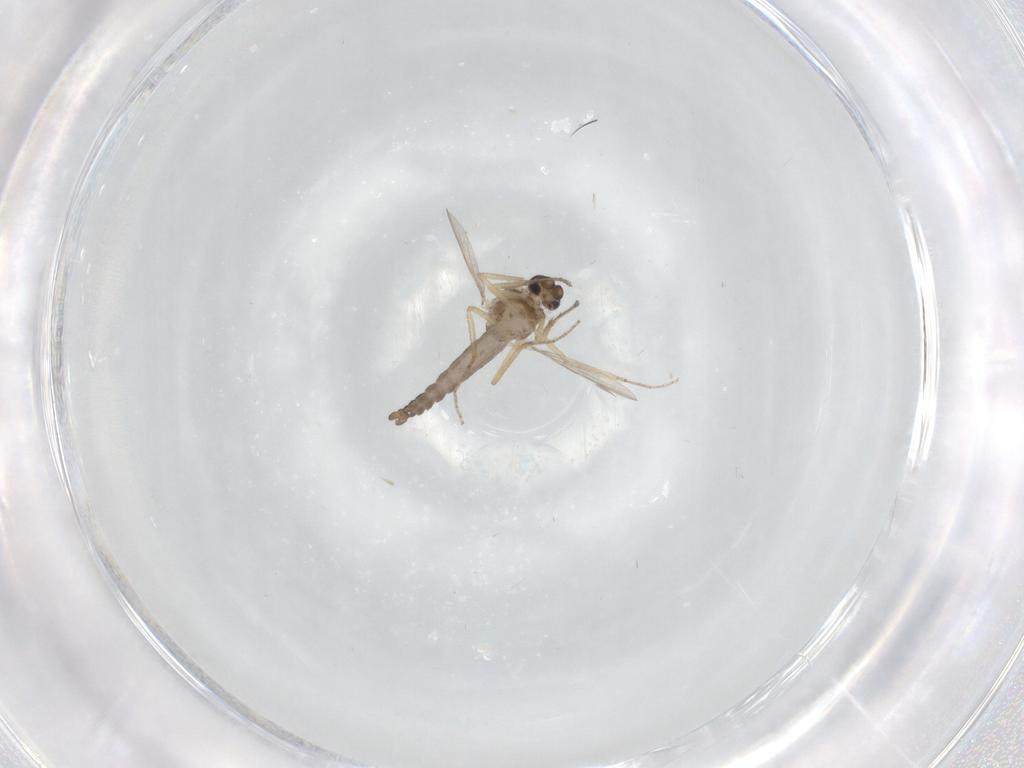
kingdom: Animalia
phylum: Arthropoda
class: Insecta
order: Diptera
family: Ceratopogonidae
